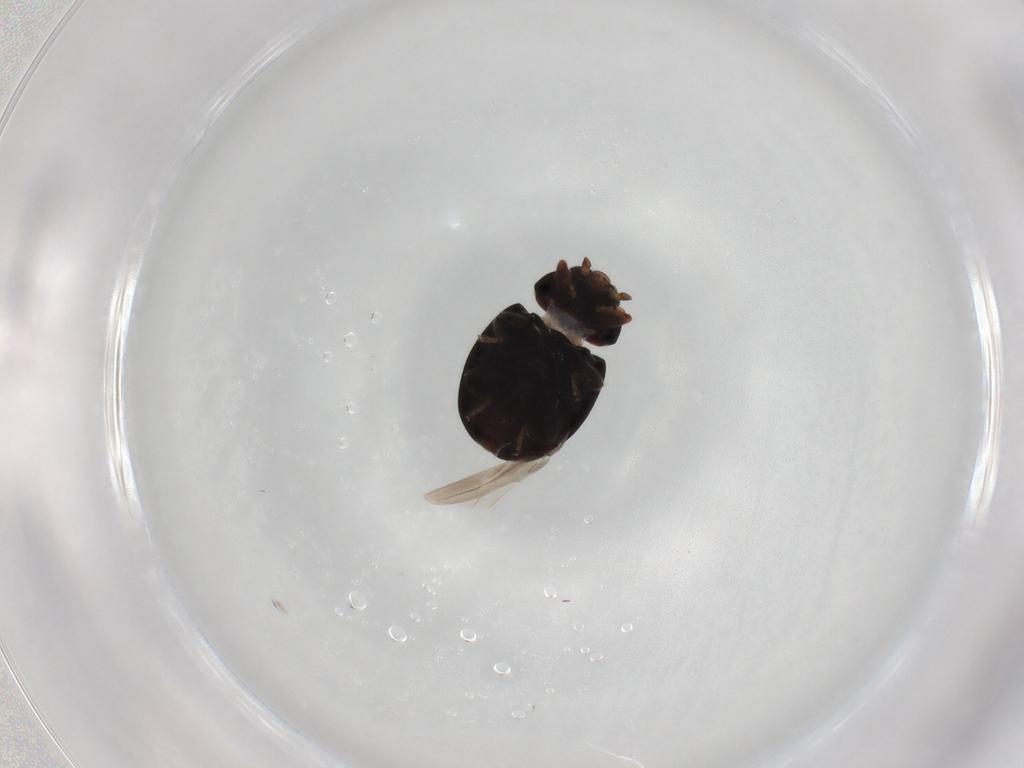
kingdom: Animalia
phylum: Arthropoda
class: Insecta
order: Coleoptera
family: Coccinellidae
